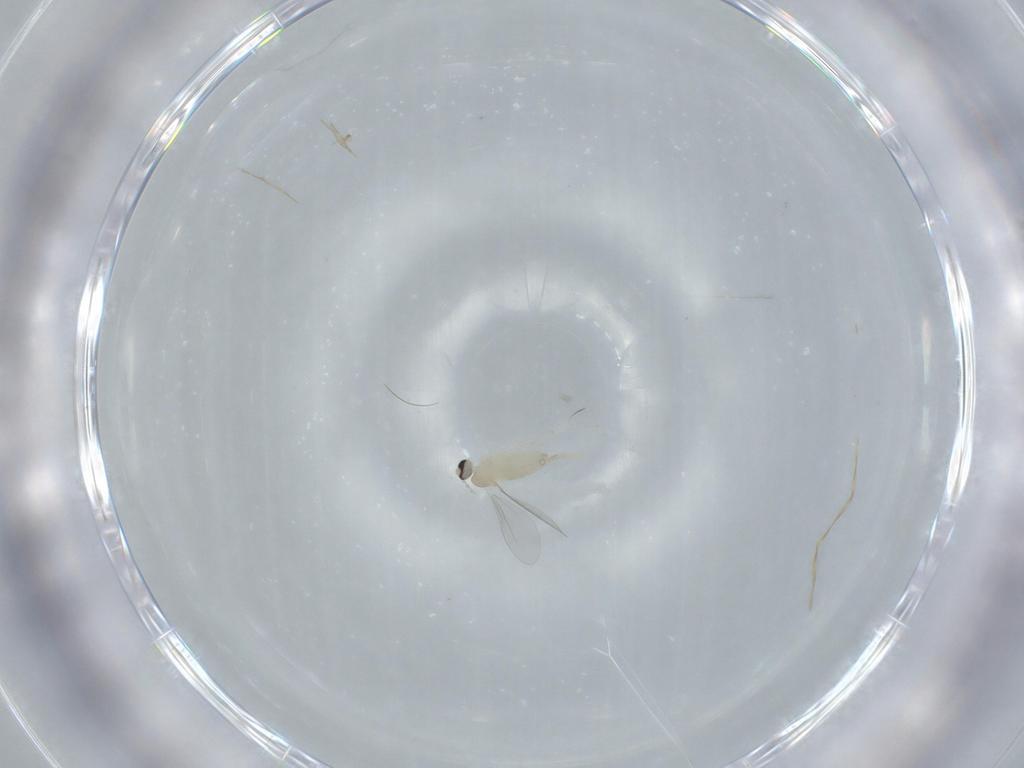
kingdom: Animalia
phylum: Arthropoda
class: Insecta
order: Diptera
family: Cecidomyiidae
